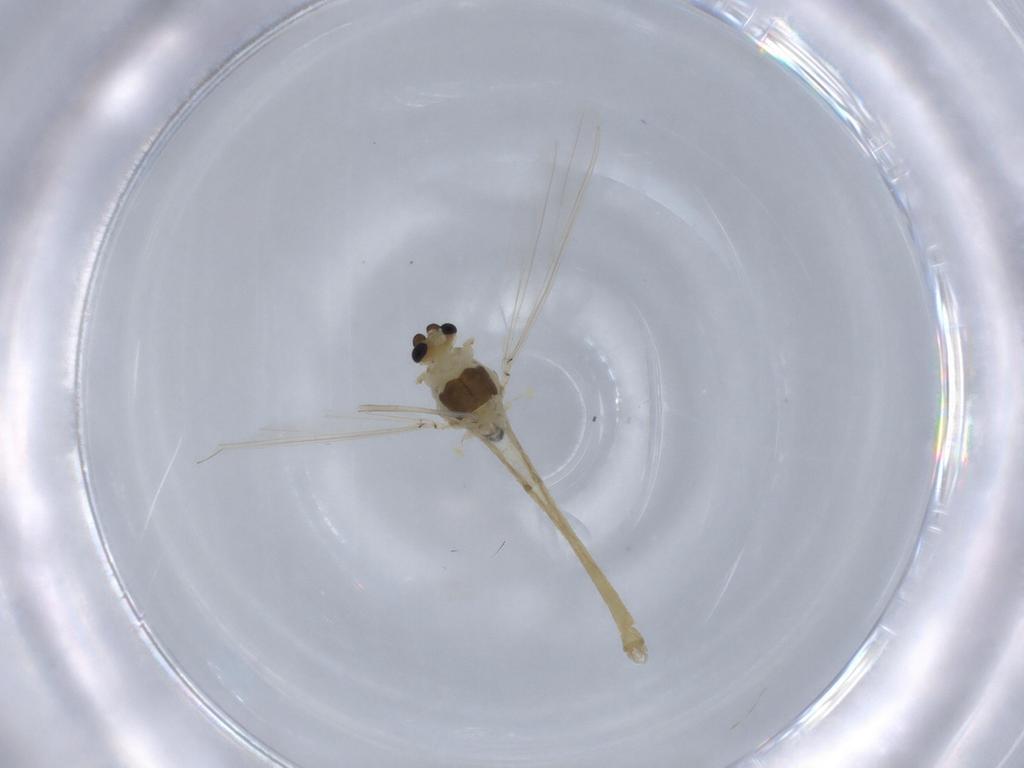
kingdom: Animalia
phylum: Arthropoda
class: Insecta
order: Diptera
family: Chironomidae
